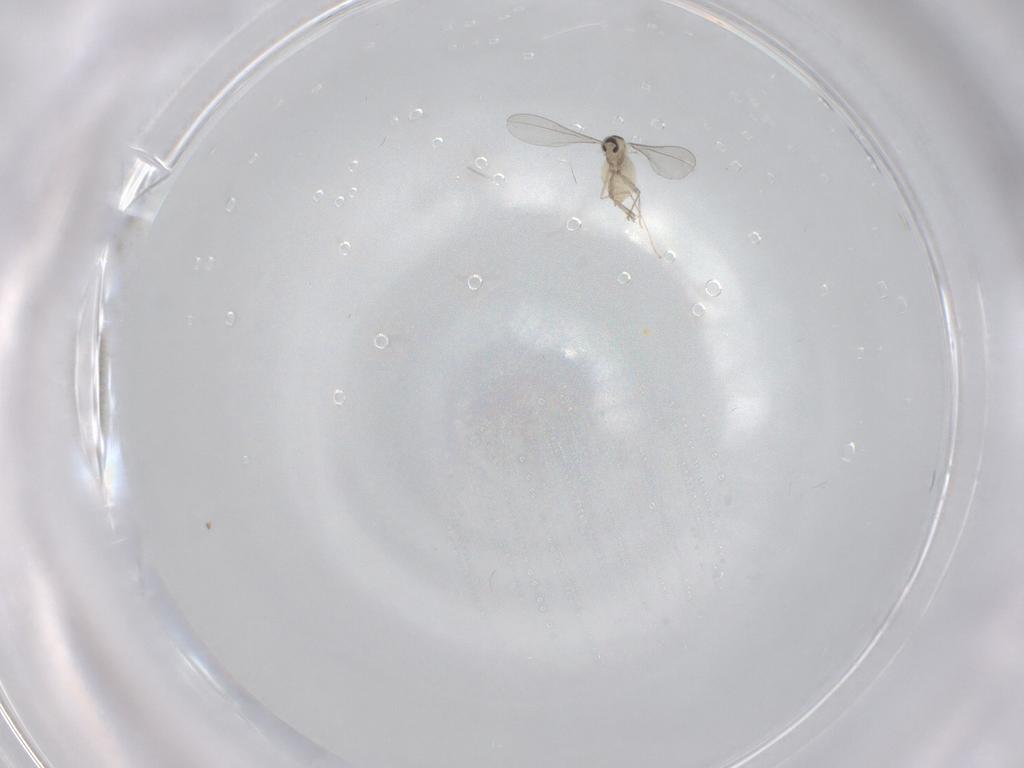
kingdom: Animalia
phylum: Arthropoda
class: Insecta
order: Diptera
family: Cecidomyiidae
